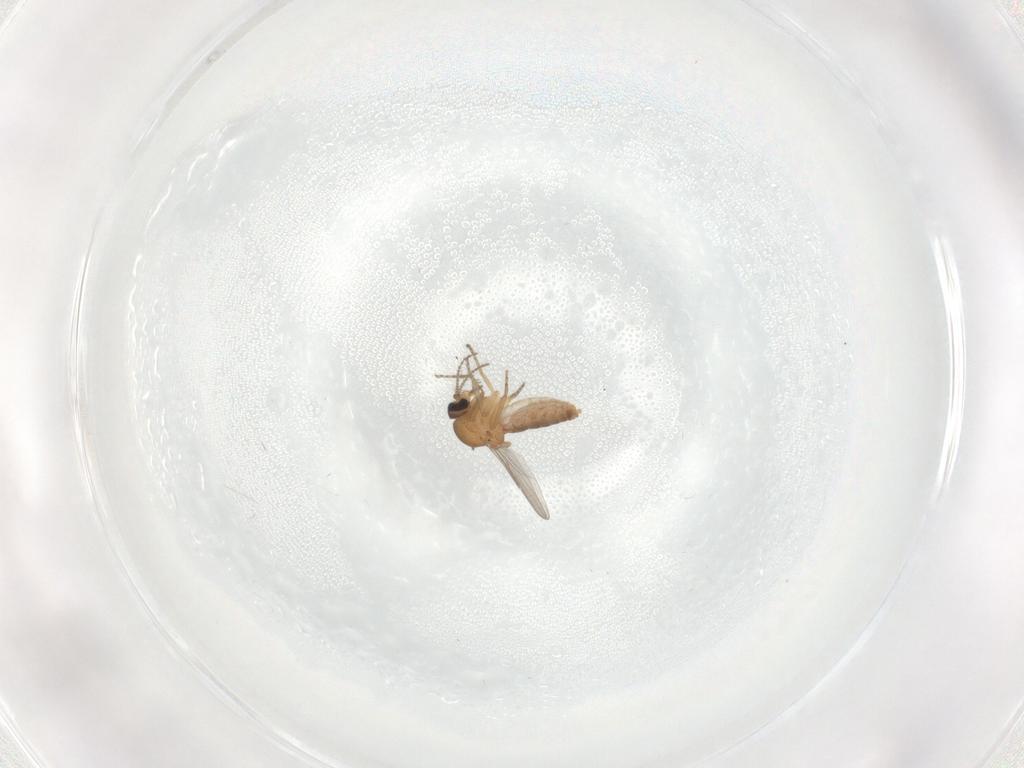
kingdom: Animalia
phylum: Arthropoda
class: Insecta
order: Diptera
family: Ceratopogonidae
